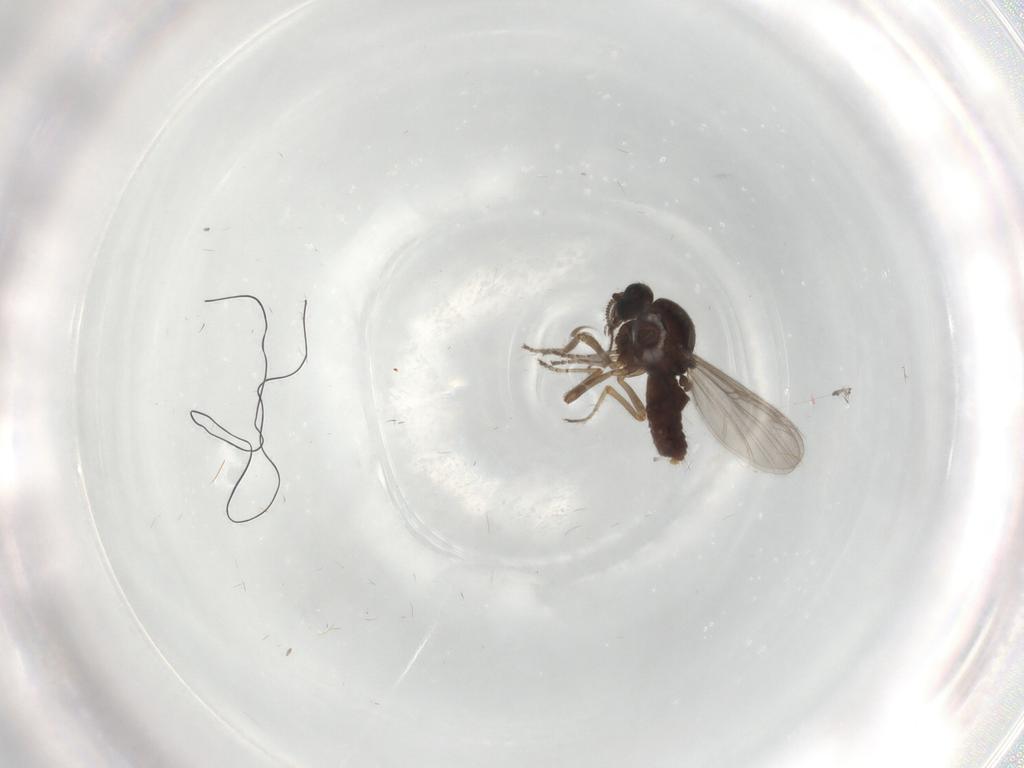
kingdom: Animalia
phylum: Arthropoda
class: Insecta
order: Diptera
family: Ceratopogonidae
